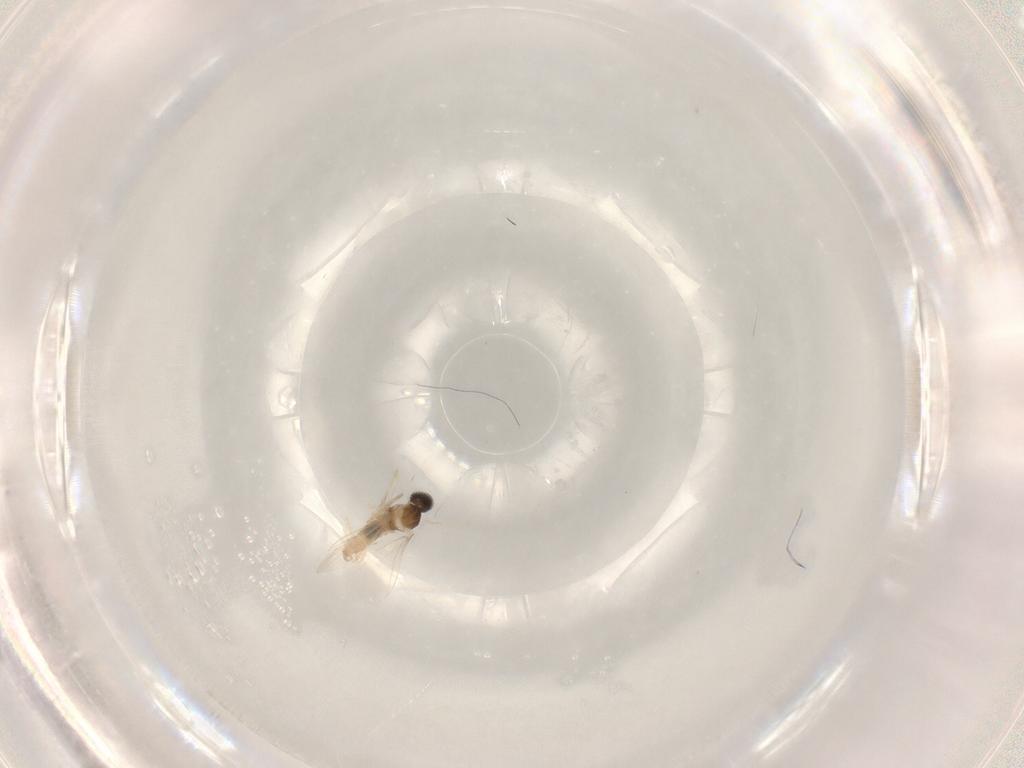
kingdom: Animalia
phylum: Arthropoda
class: Insecta
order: Diptera
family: Cecidomyiidae
